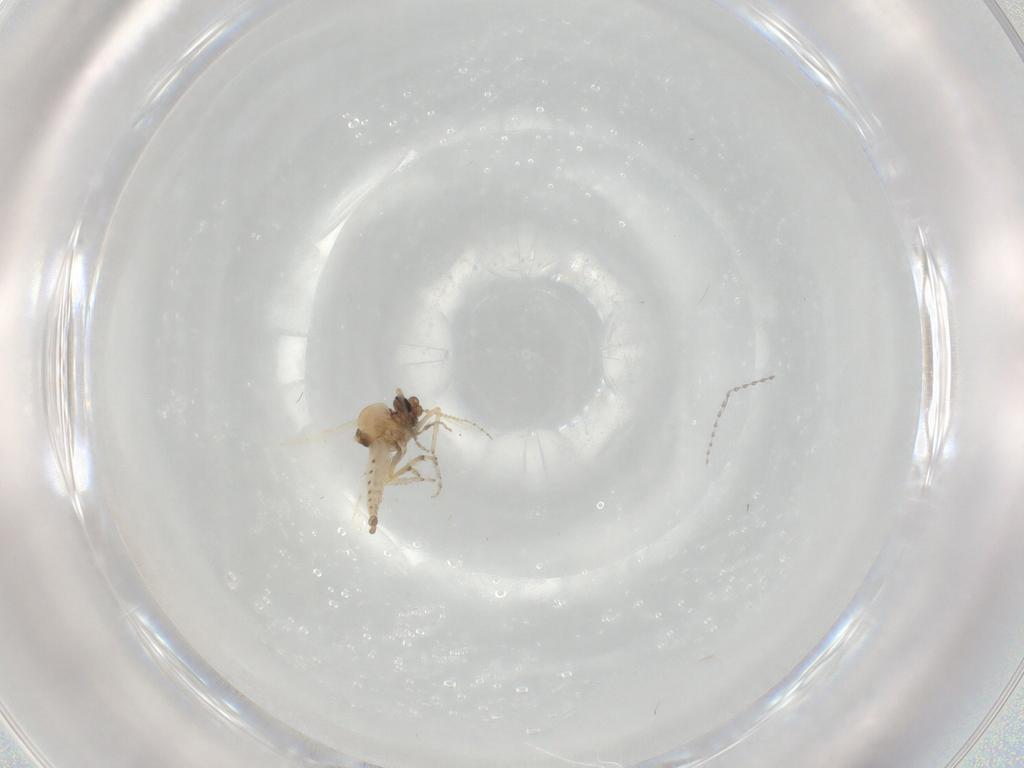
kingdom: Animalia
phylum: Arthropoda
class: Insecta
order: Diptera
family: Ceratopogonidae
